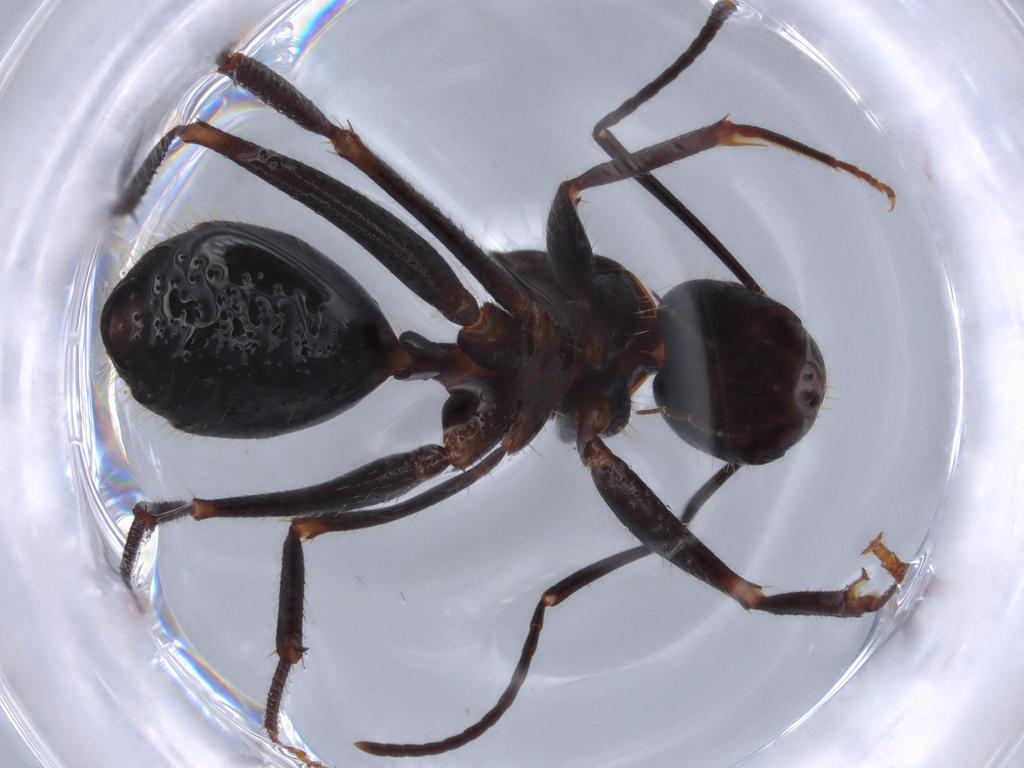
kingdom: Animalia
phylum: Arthropoda
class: Insecta
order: Hymenoptera
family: Formicidae
